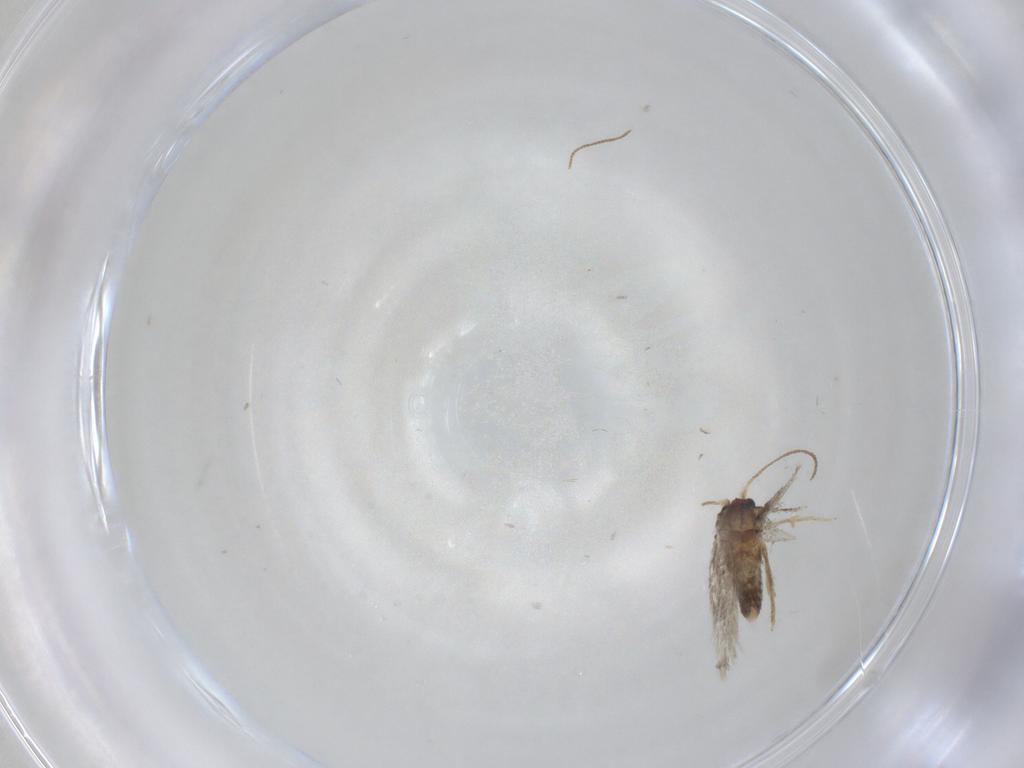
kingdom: Animalia
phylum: Arthropoda
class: Insecta
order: Lepidoptera
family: Nepticulidae
